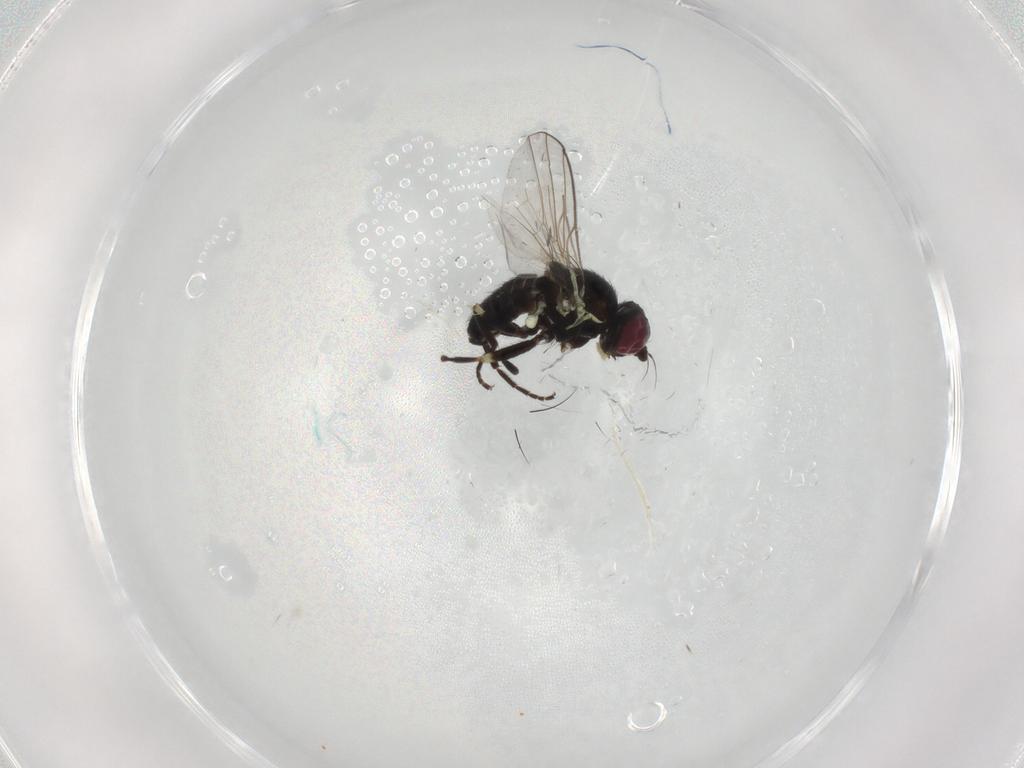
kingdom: Animalia
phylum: Arthropoda
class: Insecta
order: Diptera
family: Agromyzidae
